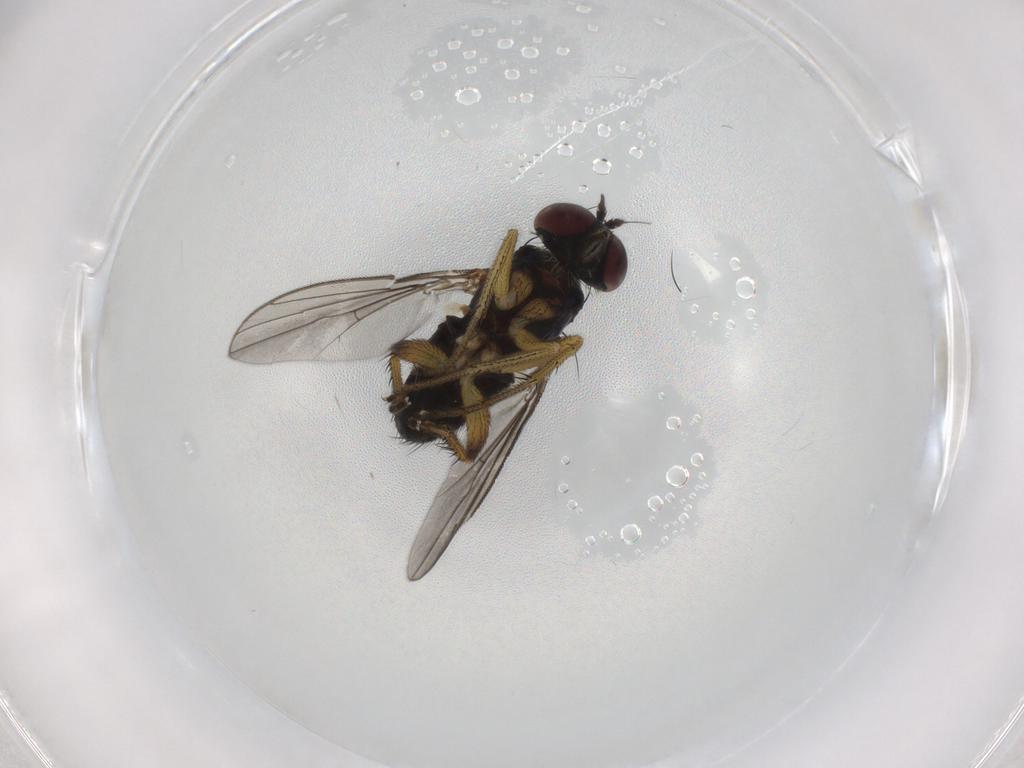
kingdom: Animalia
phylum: Arthropoda
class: Insecta
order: Diptera
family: Dolichopodidae
